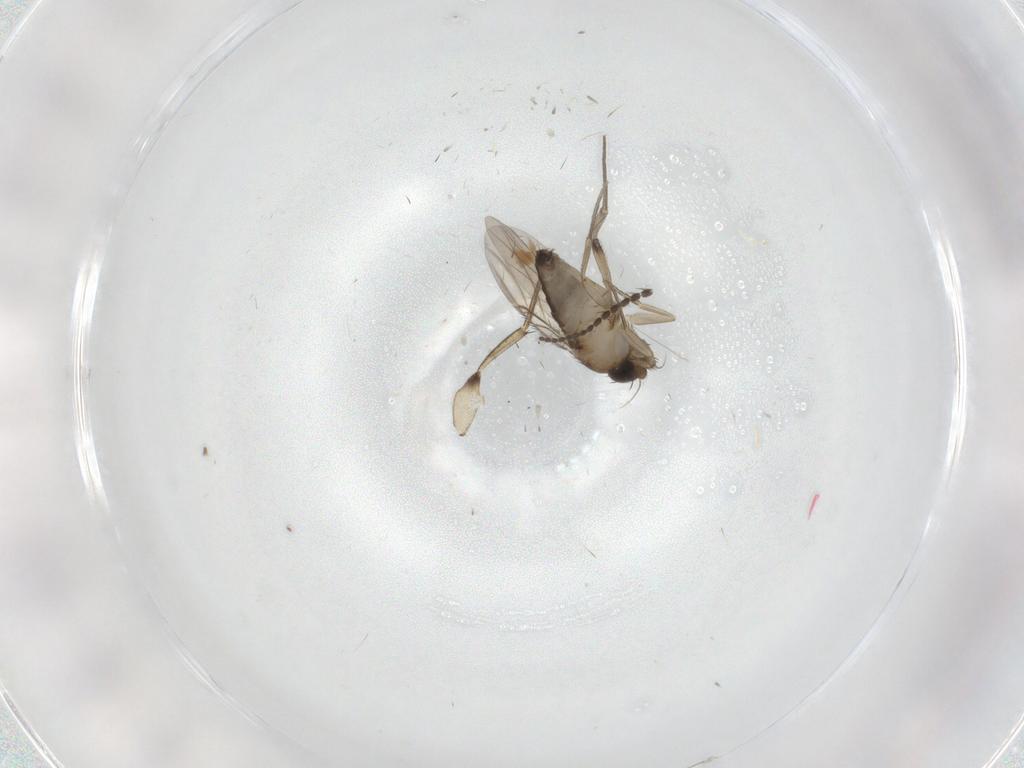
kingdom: Animalia
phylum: Arthropoda
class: Insecta
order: Diptera
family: Phoridae
